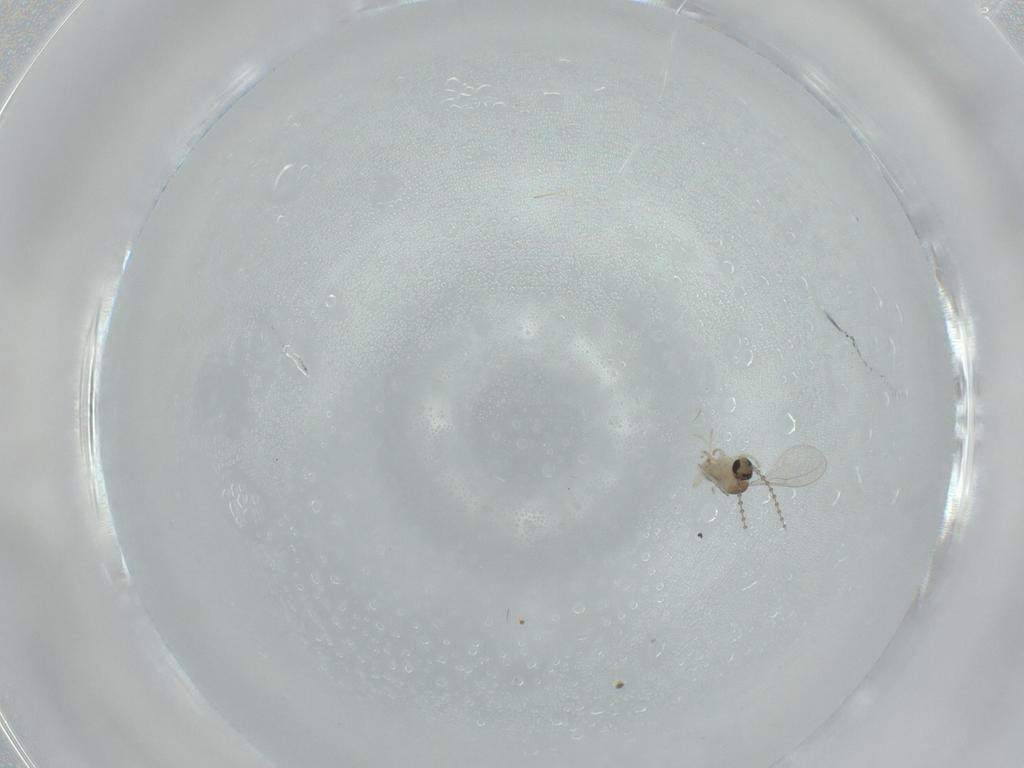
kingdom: Animalia
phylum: Arthropoda
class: Insecta
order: Diptera
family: Cecidomyiidae
